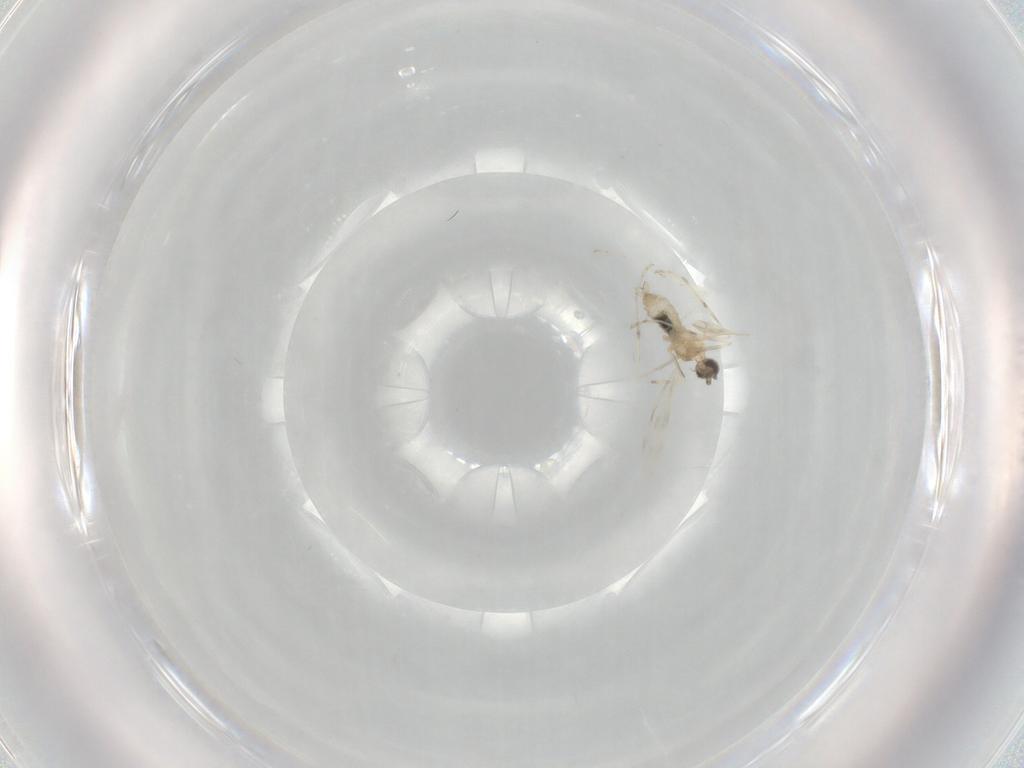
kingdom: Animalia
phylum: Arthropoda
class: Insecta
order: Diptera
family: Cecidomyiidae
